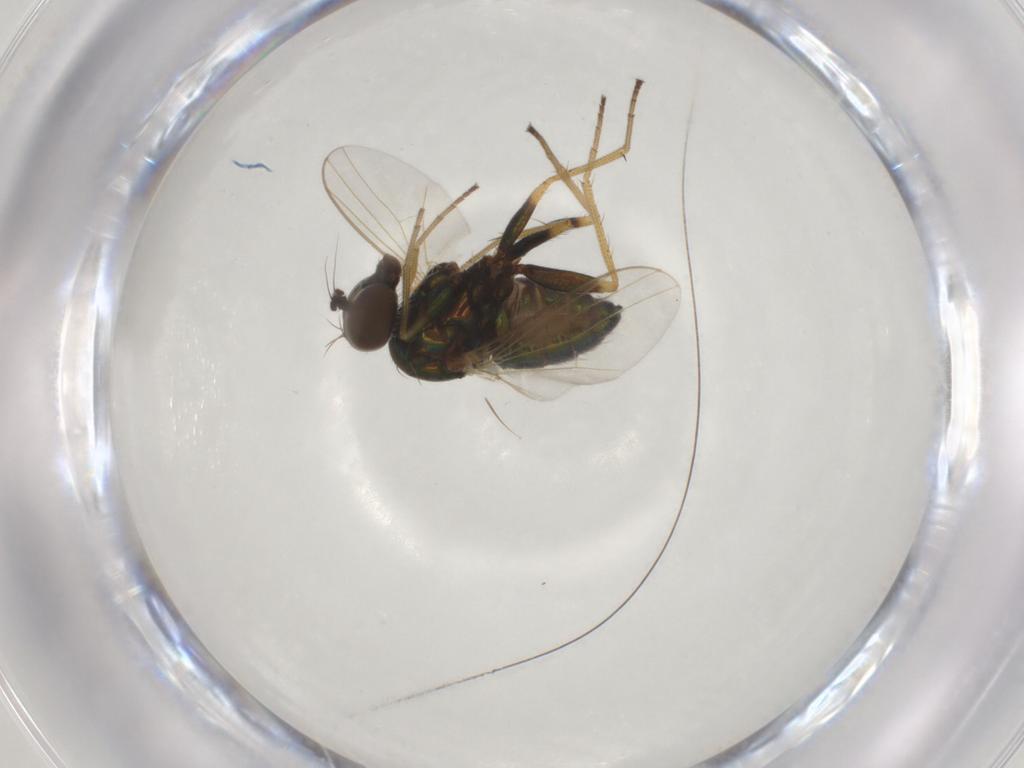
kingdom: Animalia
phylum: Arthropoda
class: Insecta
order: Diptera
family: Dolichopodidae
